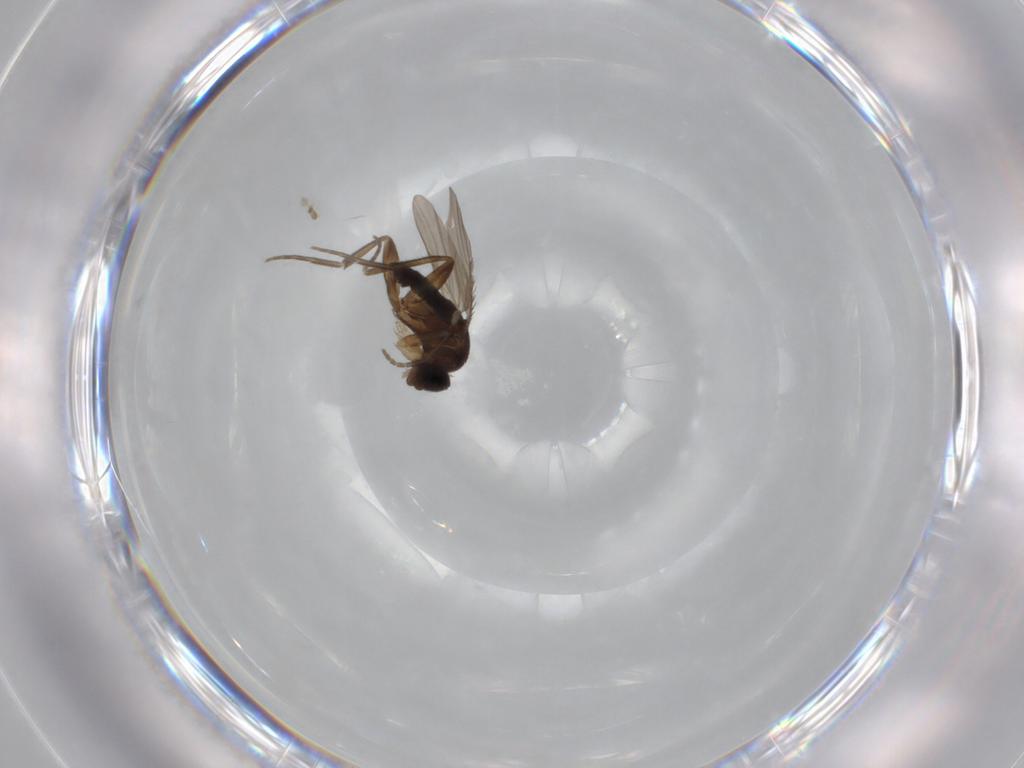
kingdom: Animalia
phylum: Arthropoda
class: Insecta
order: Diptera
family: Phoridae
